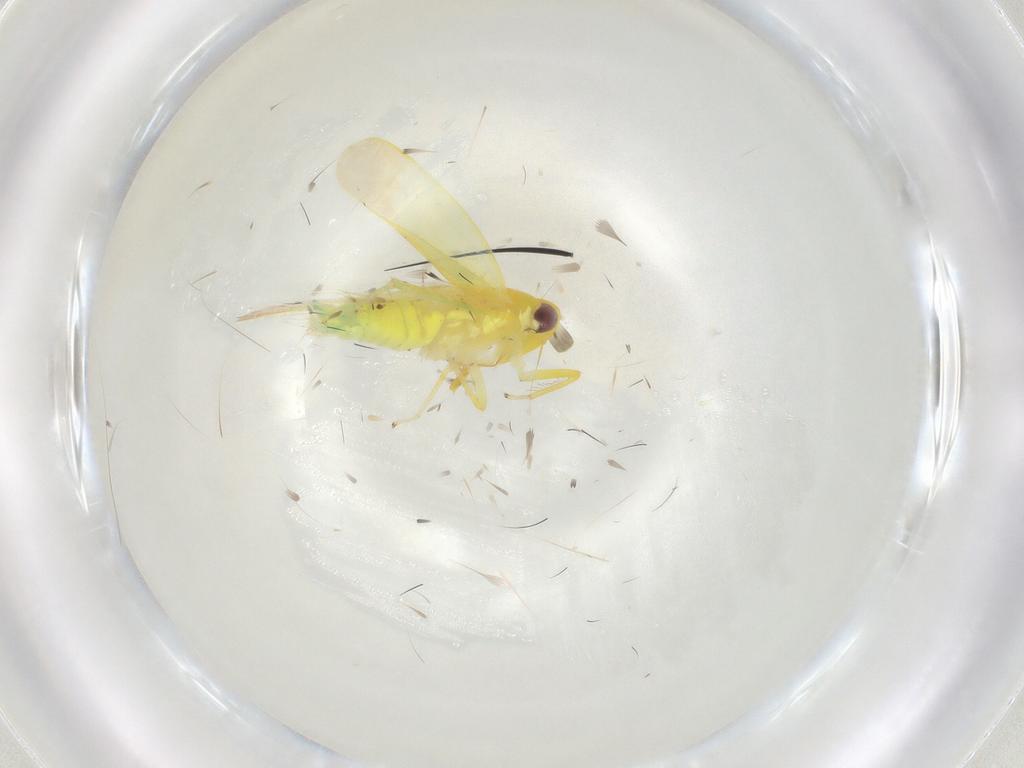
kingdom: Animalia
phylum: Arthropoda
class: Insecta
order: Hemiptera
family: Cicadellidae
